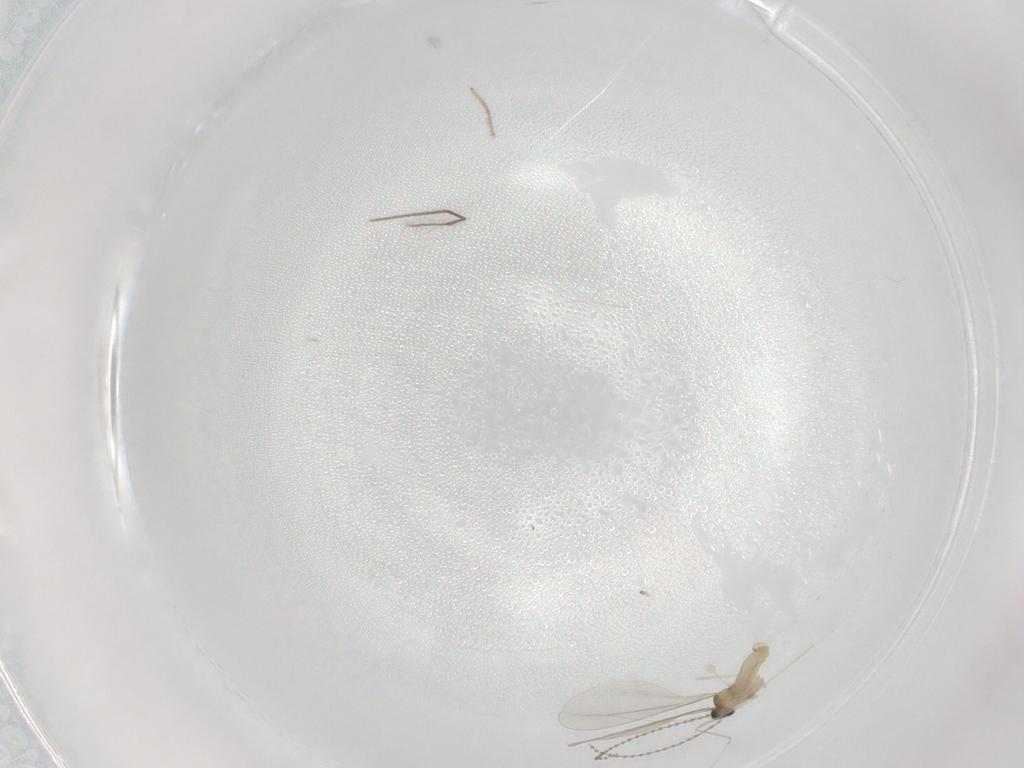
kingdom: Animalia
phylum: Arthropoda
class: Insecta
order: Diptera
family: Cecidomyiidae
